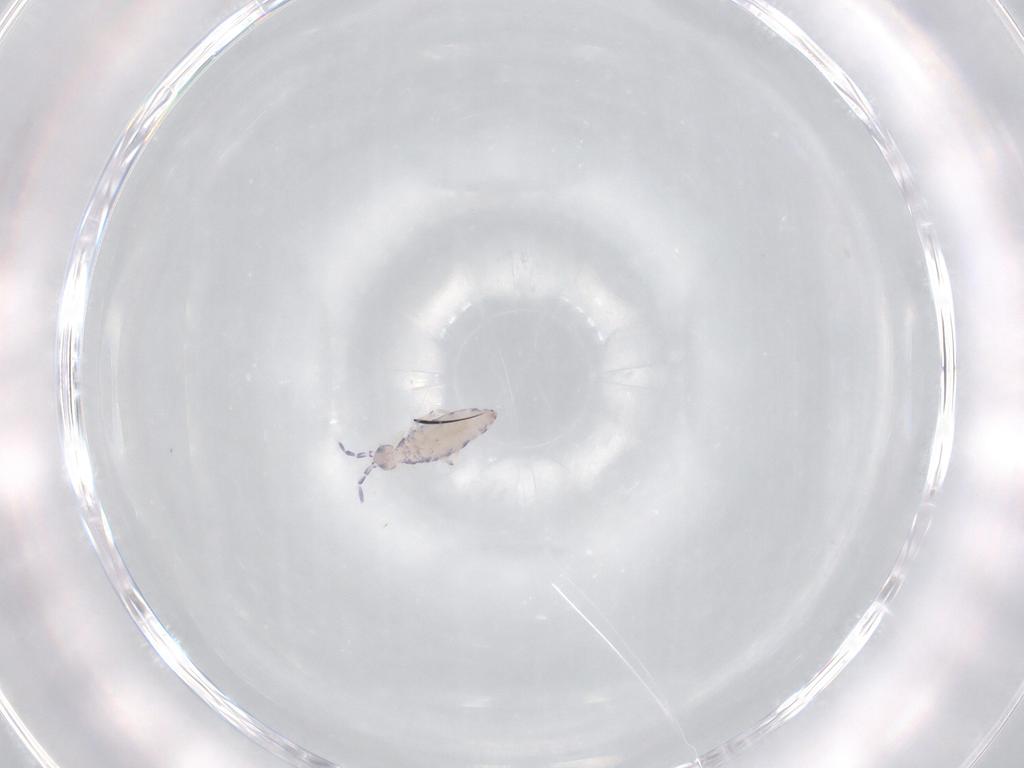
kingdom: Animalia
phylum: Arthropoda
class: Collembola
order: Entomobryomorpha
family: Entomobryidae
